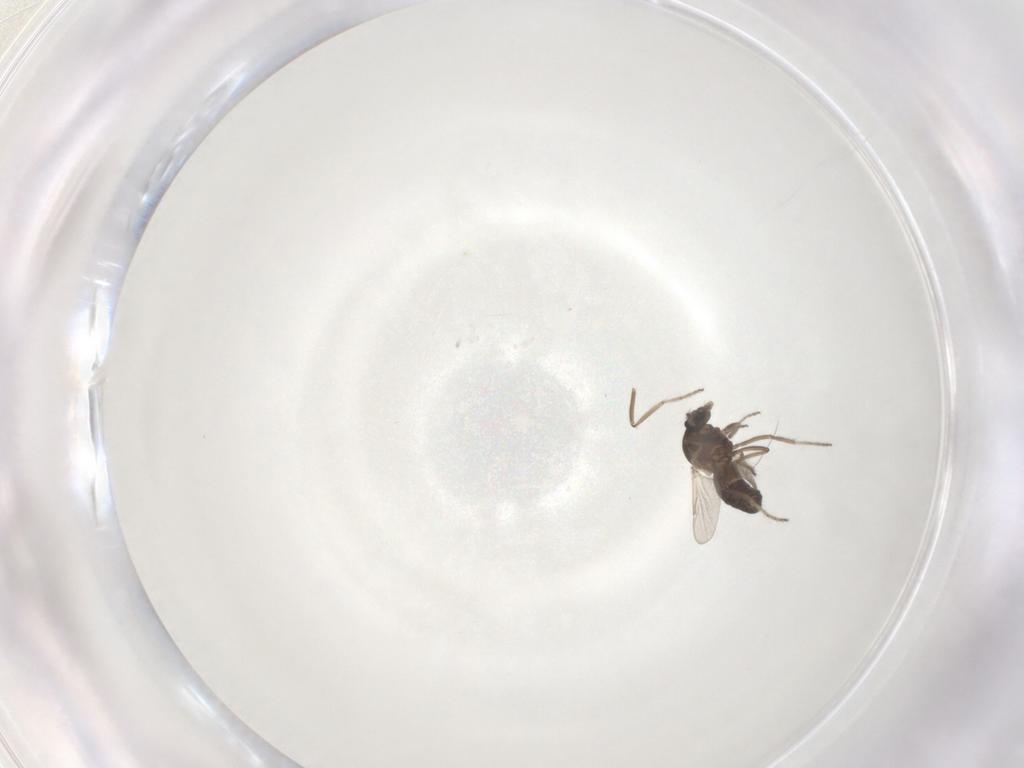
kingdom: Animalia
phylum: Arthropoda
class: Insecta
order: Diptera
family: Ceratopogonidae
